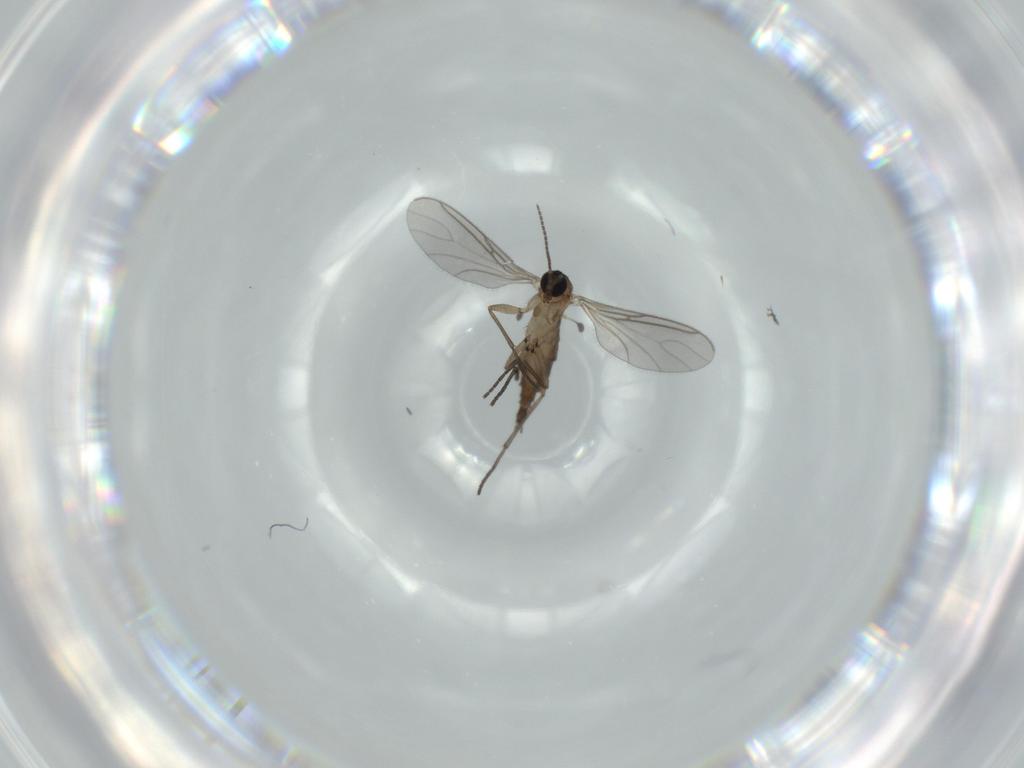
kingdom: Animalia
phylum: Arthropoda
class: Insecta
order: Diptera
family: Sciaridae
